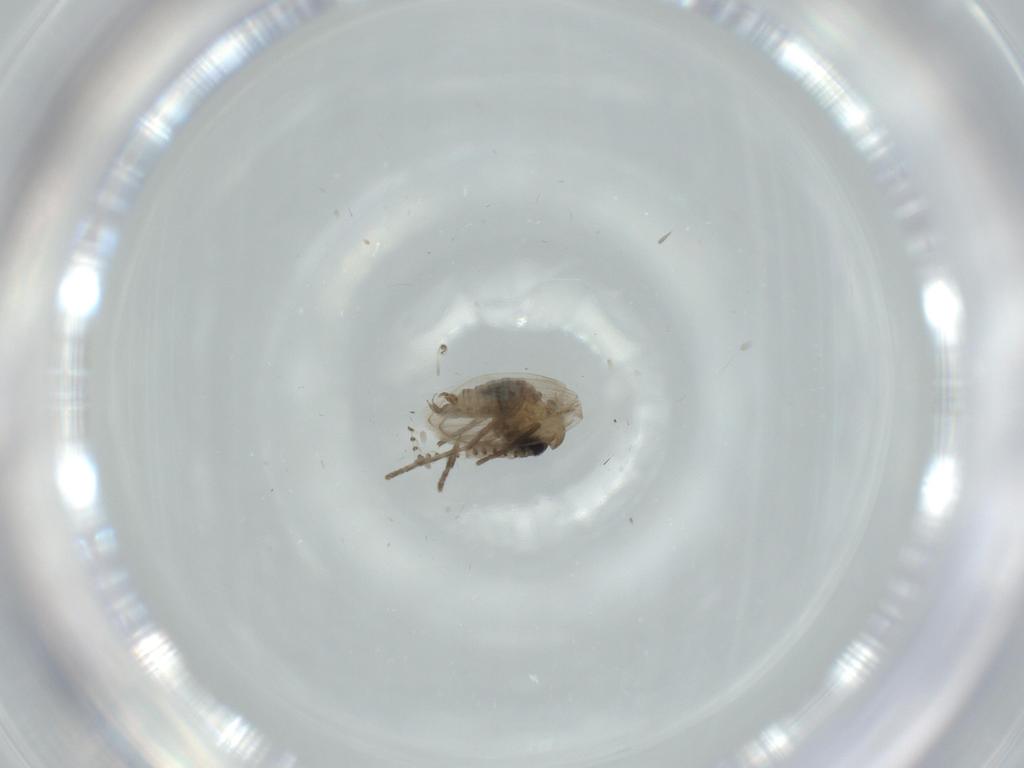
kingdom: Animalia
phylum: Arthropoda
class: Insecta
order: Diptera
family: Psychodidae
